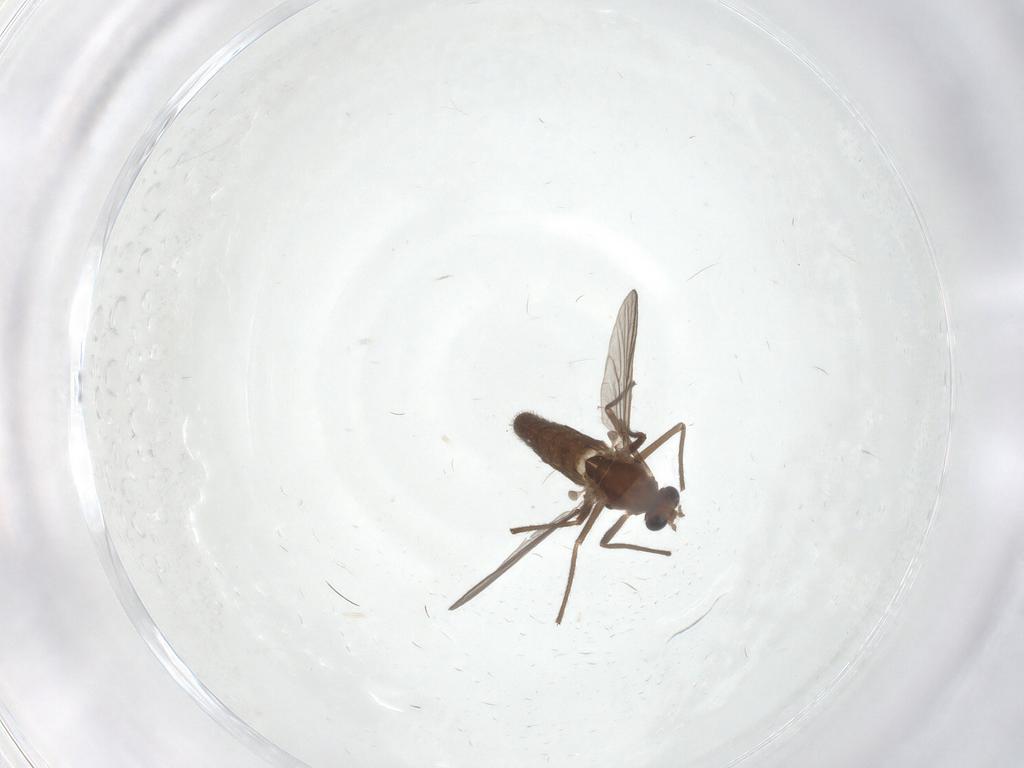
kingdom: Animalia
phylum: Arthropoda
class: Insecta
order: Diptera
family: Chironomidae
